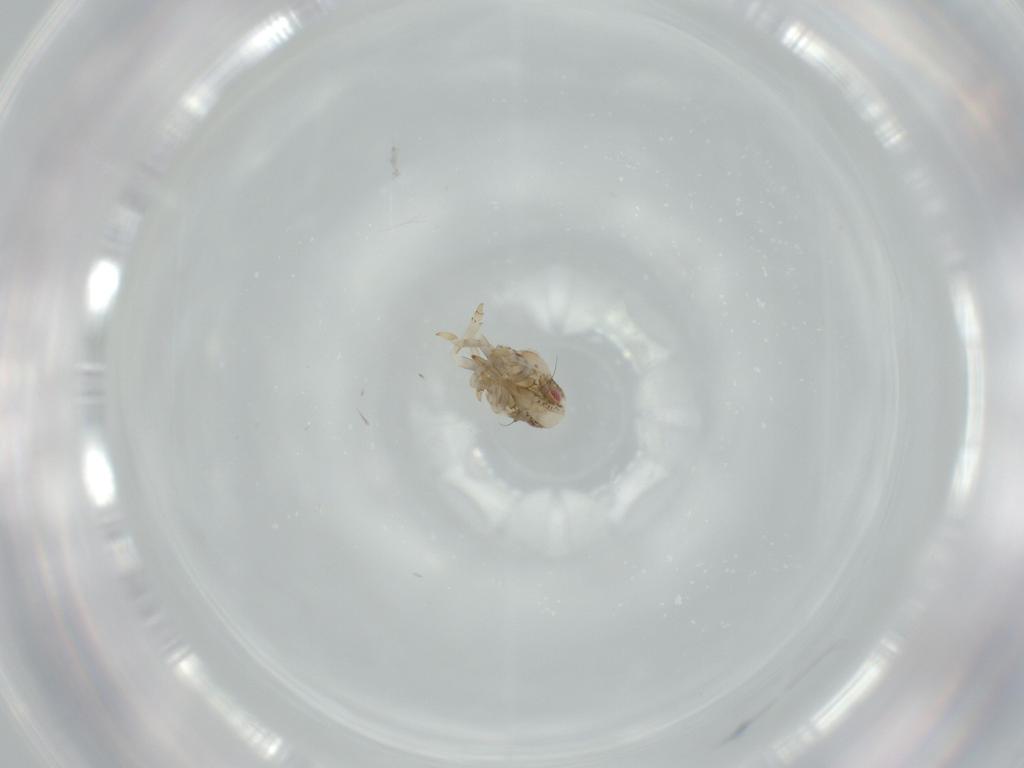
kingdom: Animalia
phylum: Arthropoda
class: Insecta
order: Hemiptera
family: Acanaloniidae
